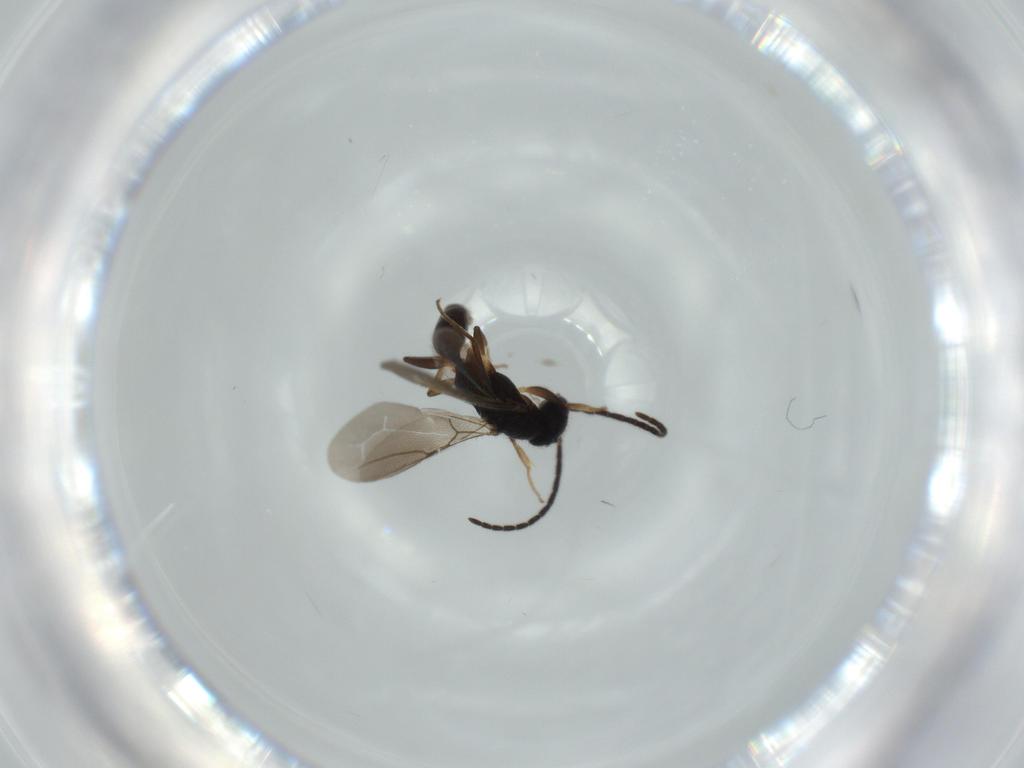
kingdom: Animalia
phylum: Arthropoda
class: Insecta
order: Hymenoptera
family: Bethylidae
